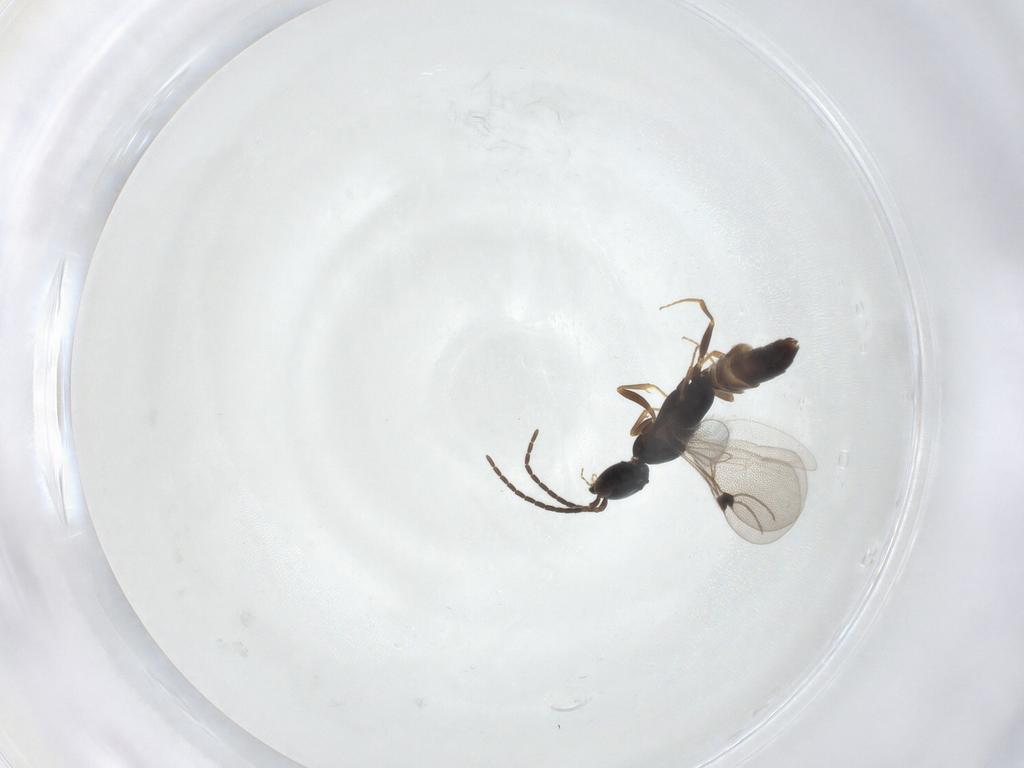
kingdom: Animalia
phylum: Arthropoda
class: Insecta
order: Hymenoptera
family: Bethylidae
